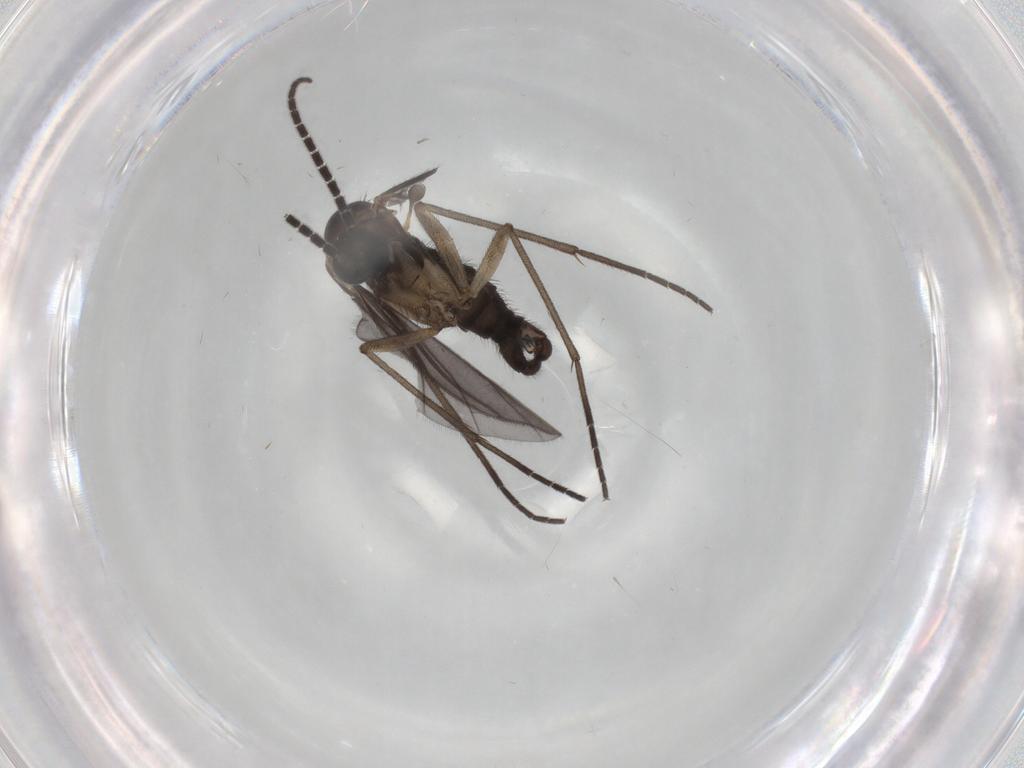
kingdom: Animalia
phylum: Arthropoda
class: Insecta
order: Diptera
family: Sciaridae
